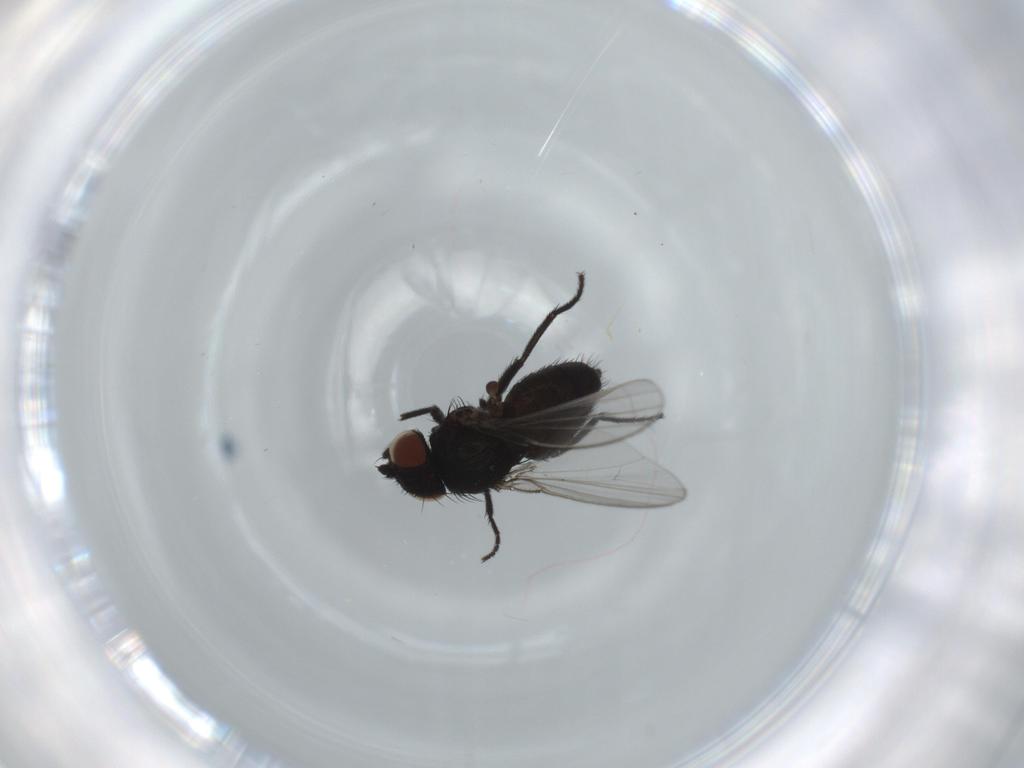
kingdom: Animalia
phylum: Arthropoda
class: Insecta
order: Diptera
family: Milichiidae
